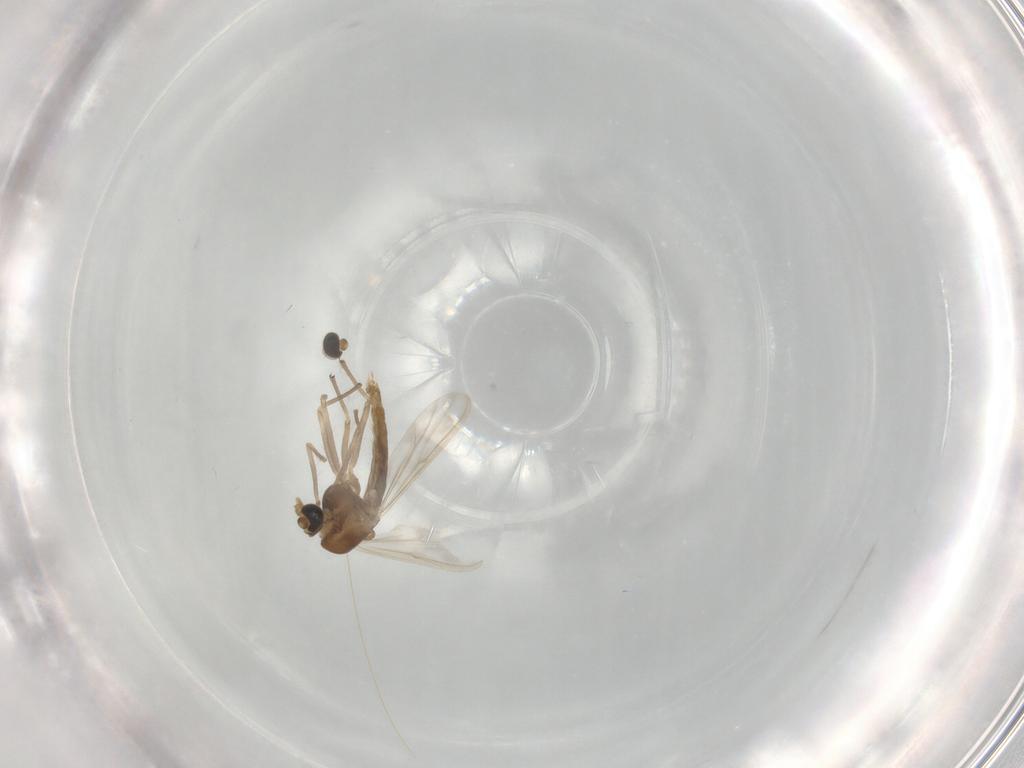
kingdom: Animalia
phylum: Arthropoda
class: Insecta
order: Diptera
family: Chironomidae
